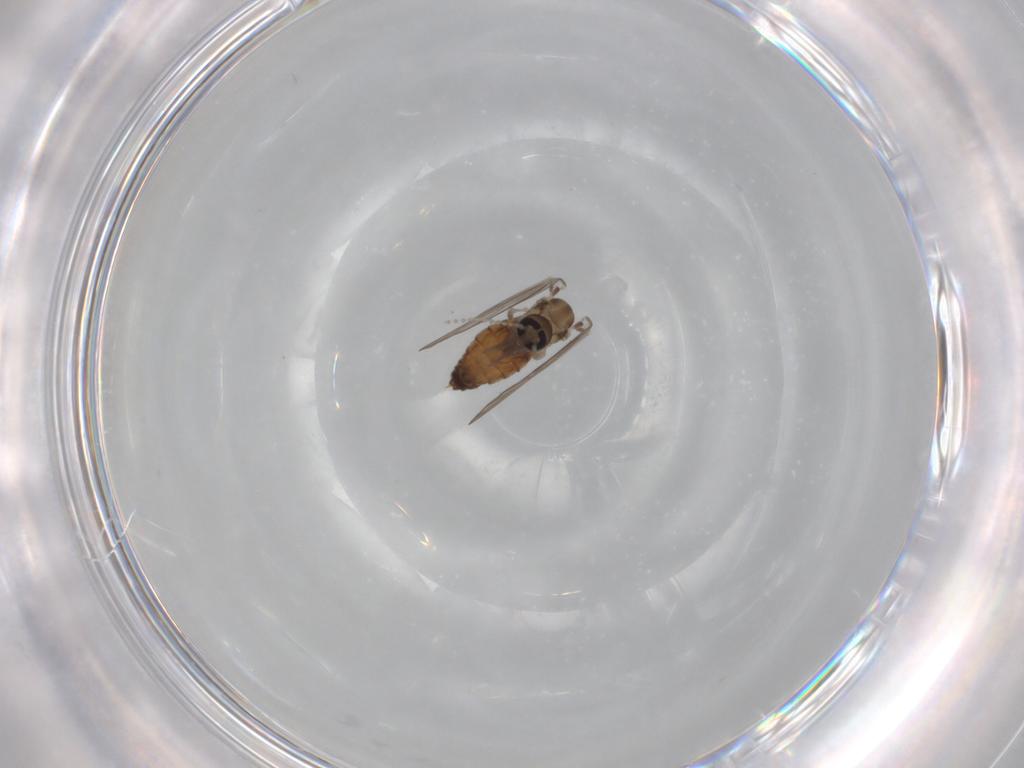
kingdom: Animalia
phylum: Arthropoda
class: Insecta
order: Diptera
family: Psychodidae
